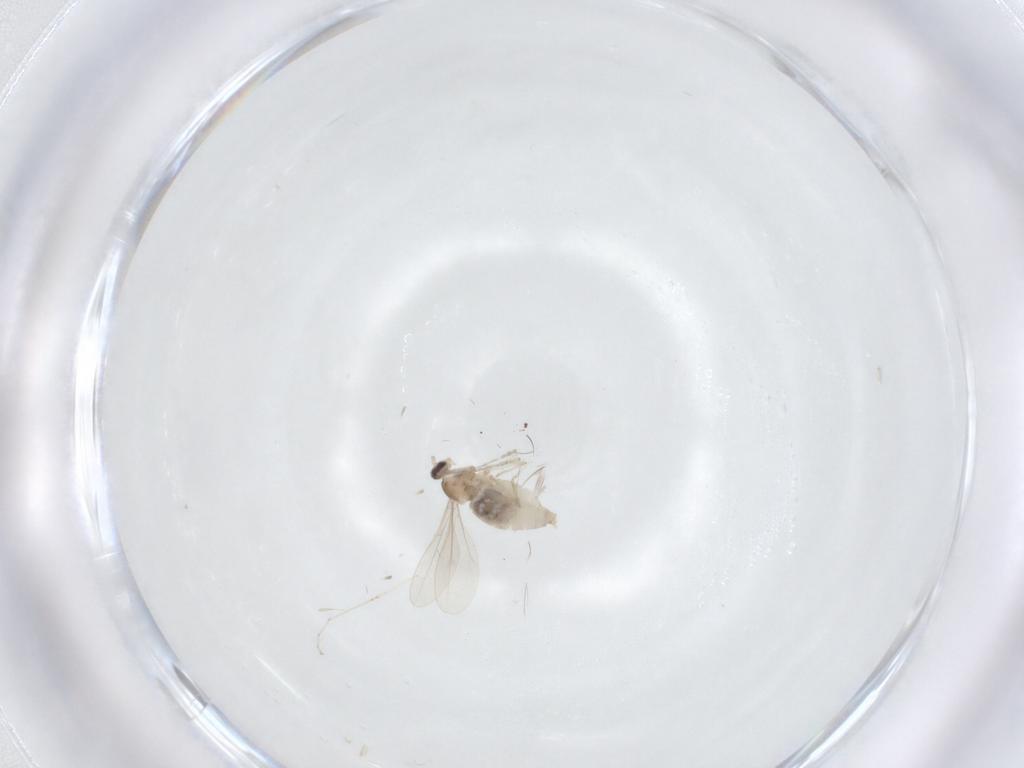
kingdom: Animalia
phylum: Arthropoda
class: Insecta
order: Diptera
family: Cecidomyiidae
